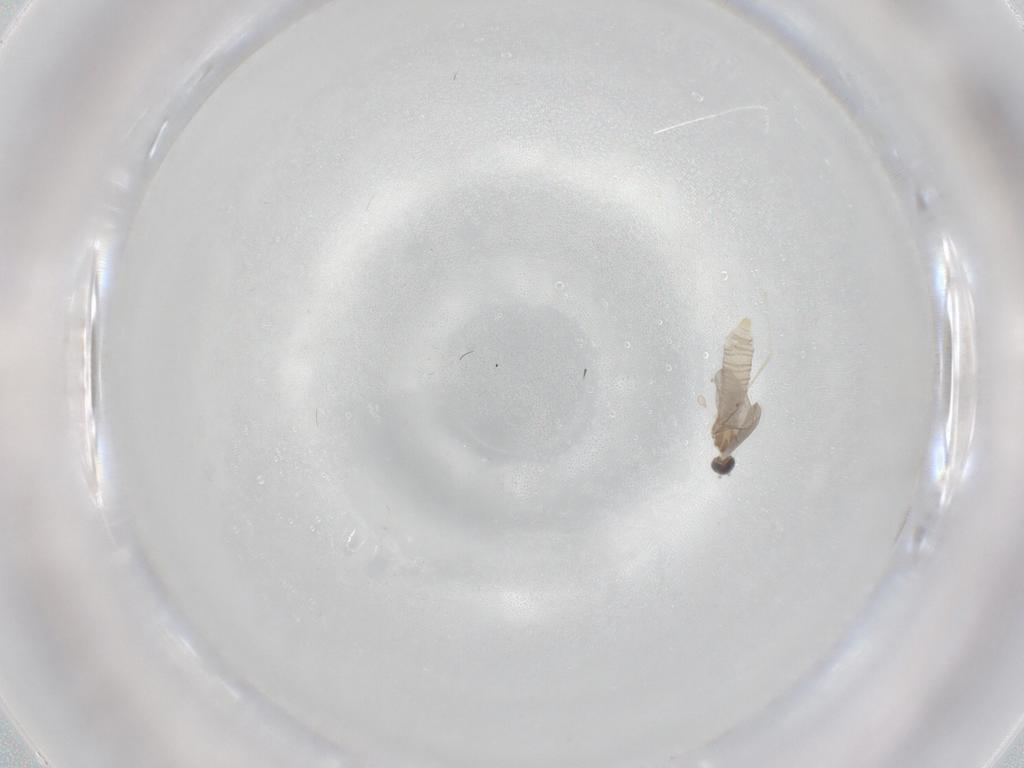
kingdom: Animalia
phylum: Arthropoda
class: Insecta
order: Diptera
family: Cecidomyiidae
